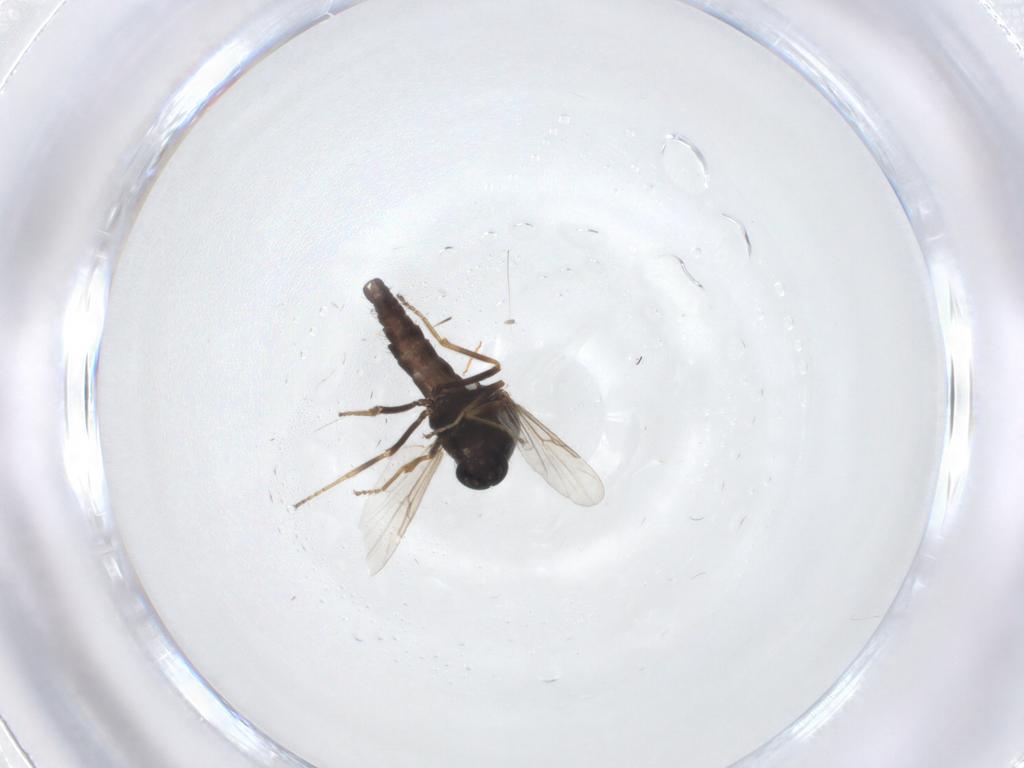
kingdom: Animalia
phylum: Arthropoda
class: Insecta
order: Diptera
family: Ceratopogonidae
